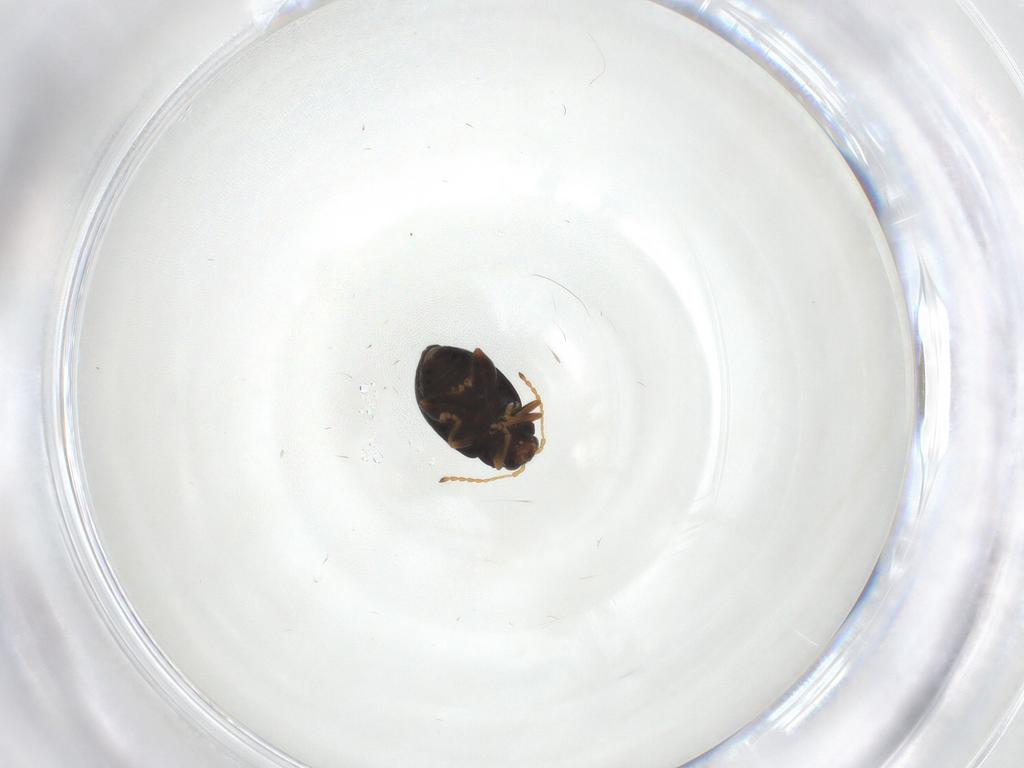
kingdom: Animalia
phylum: Arthropoda
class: Insecta
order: Coleoptera
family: Chrysomelidae
